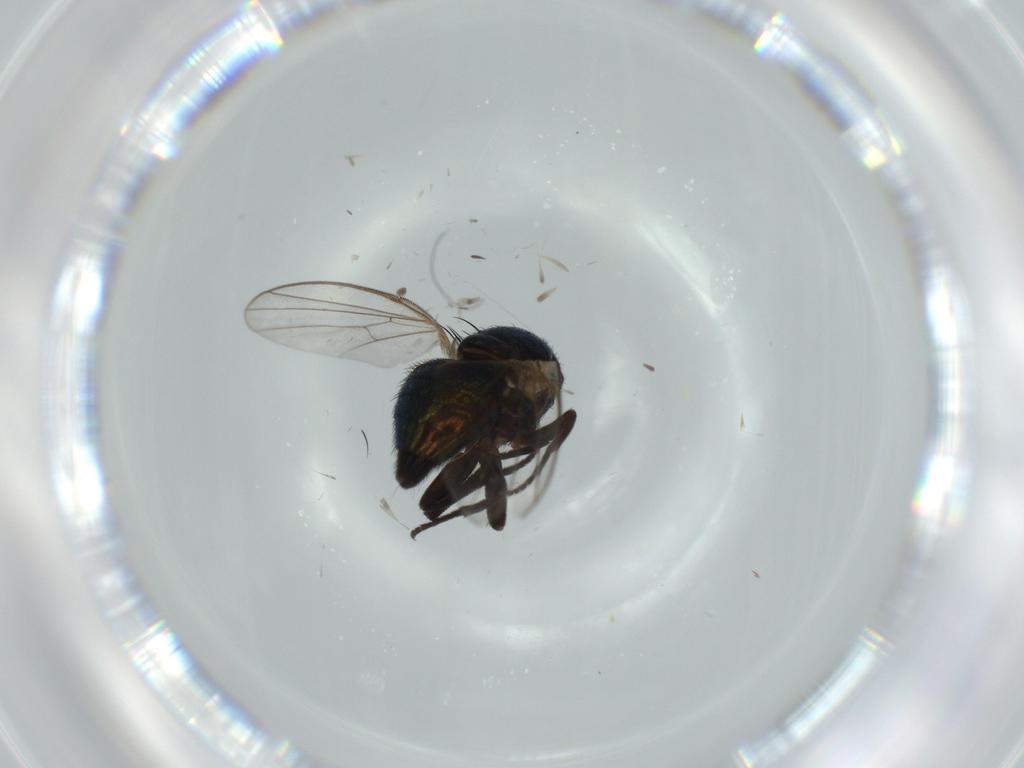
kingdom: Animalia
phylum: Arthropoda
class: Insecta
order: Diptera
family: Agromyzidae
